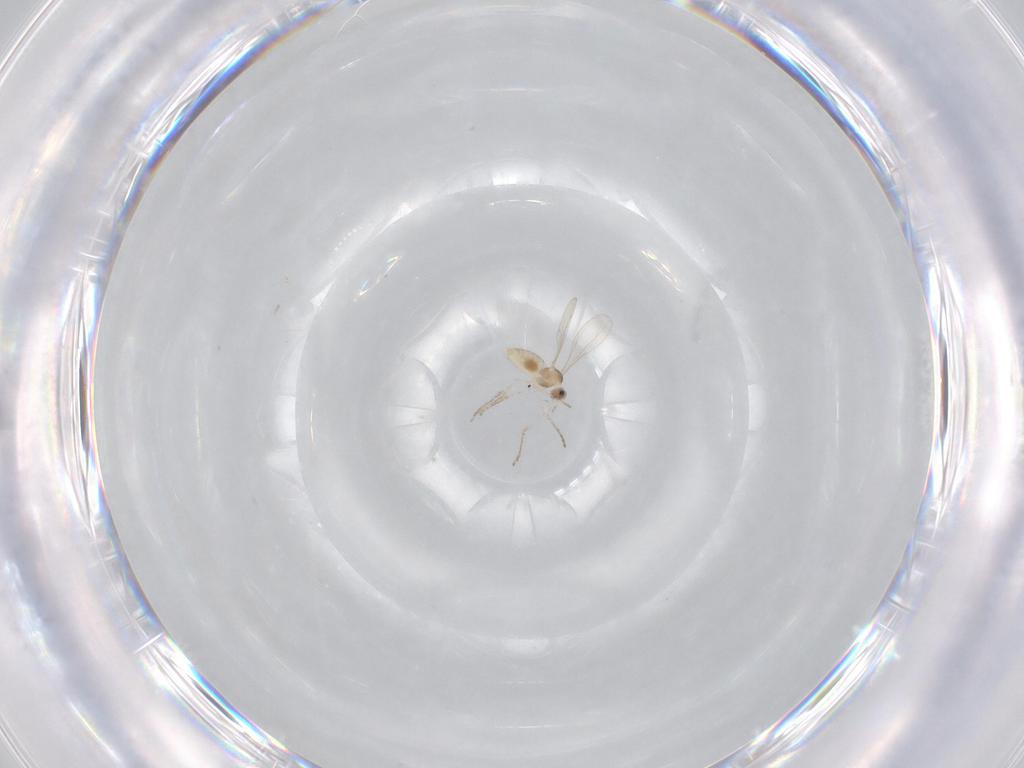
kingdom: Animalia
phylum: Arthropoda
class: Insecta
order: Diptera
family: Cecidomyiidae
